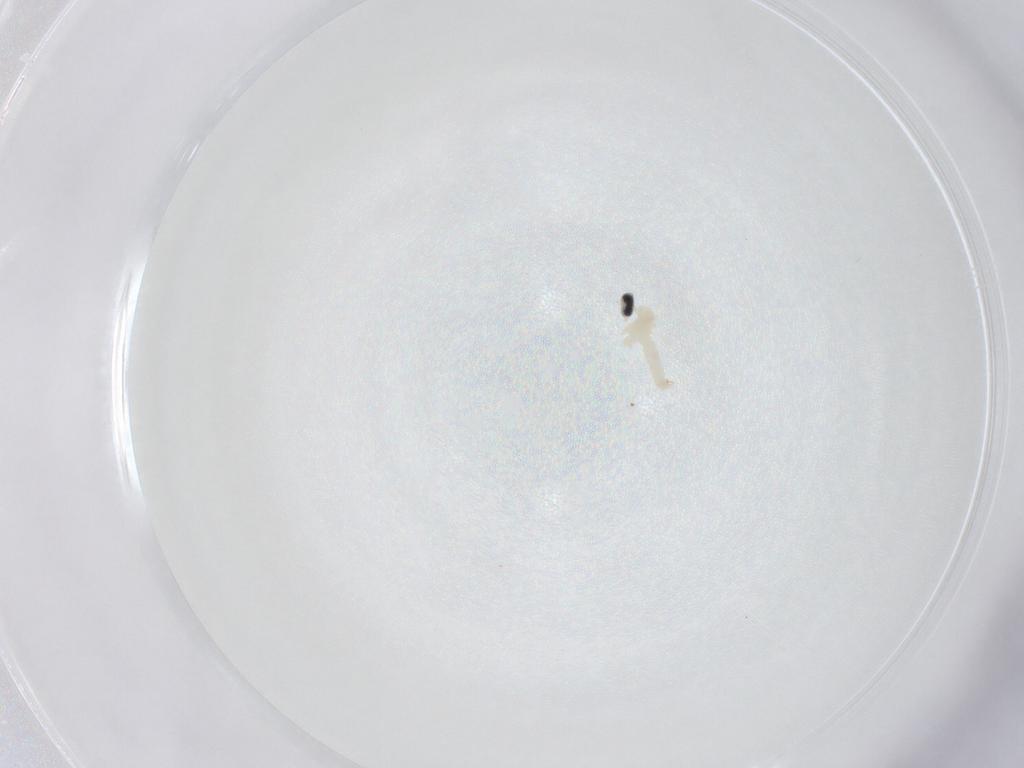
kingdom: Animalia
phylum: Arthropoda
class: Insecta
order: Diptera
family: Cecidomyiidae
